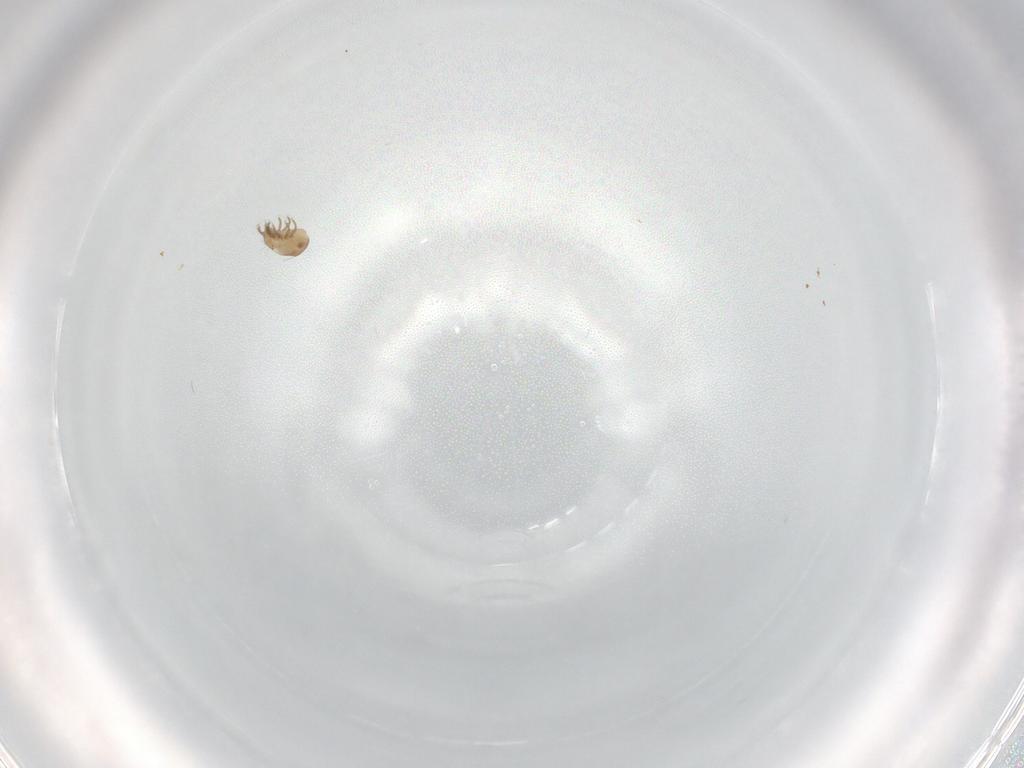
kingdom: Animalia
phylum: Arthropoda
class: Arachnida
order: Sarcoptiformes
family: Ceratozetidae
